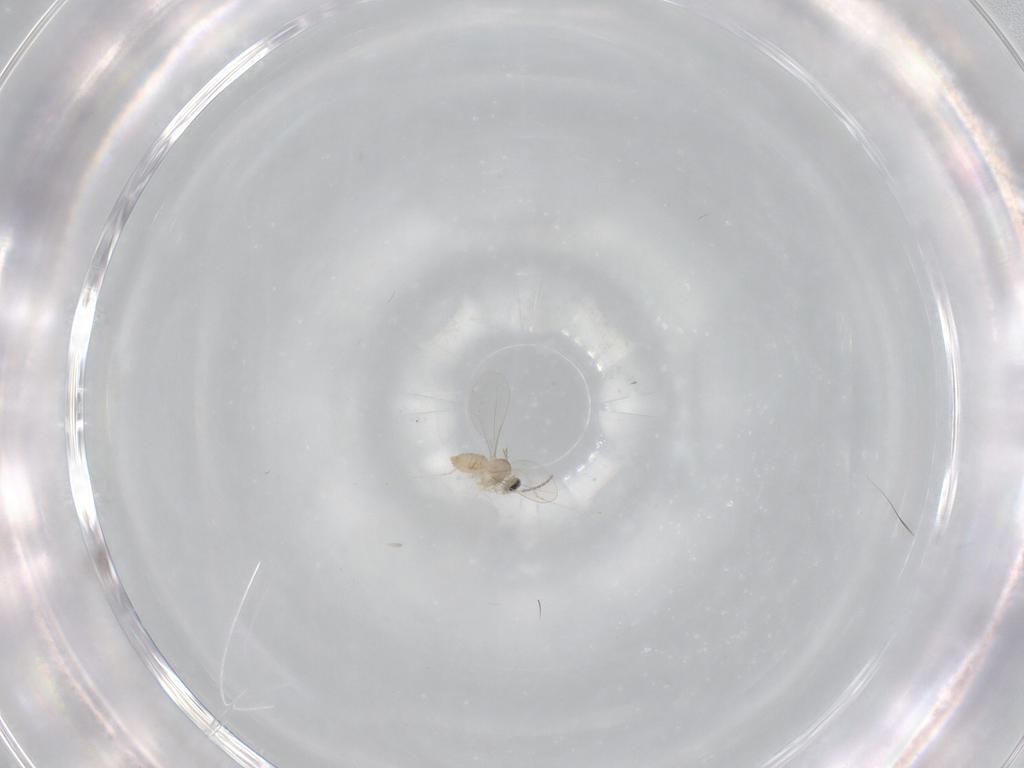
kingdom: Animalia
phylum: Arthropoda
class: Insecta
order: Diptera
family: Cecidomyiidae
